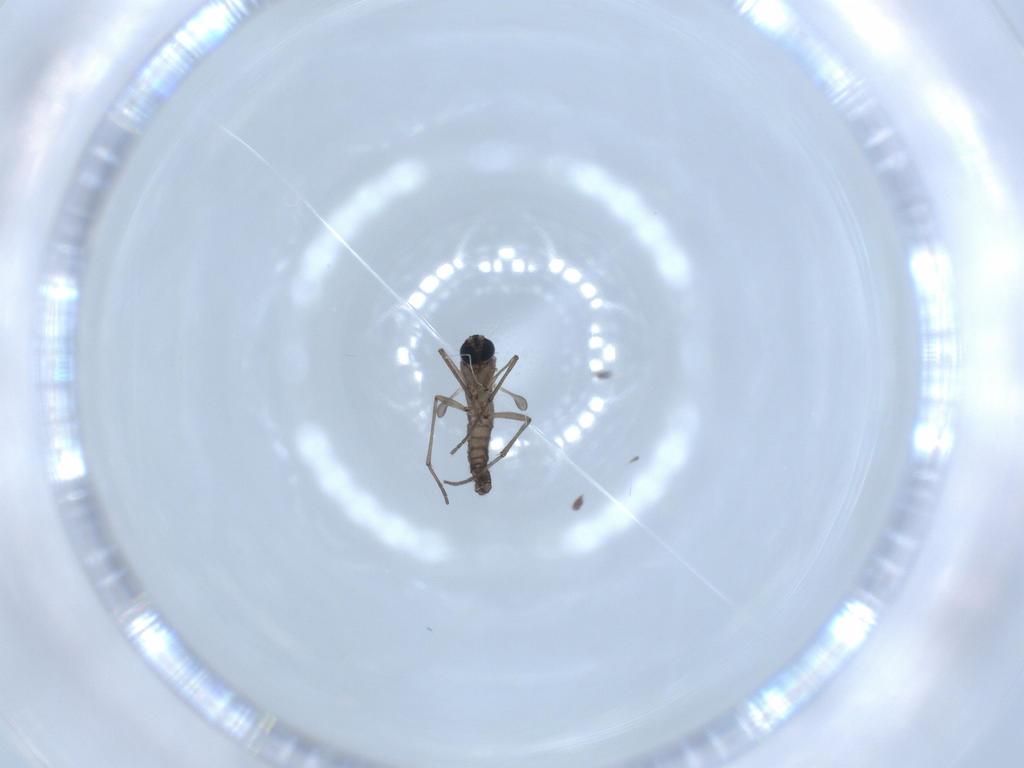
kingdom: Animalia
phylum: Arthropoda
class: Insecta
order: Diptera
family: Sciaridae
